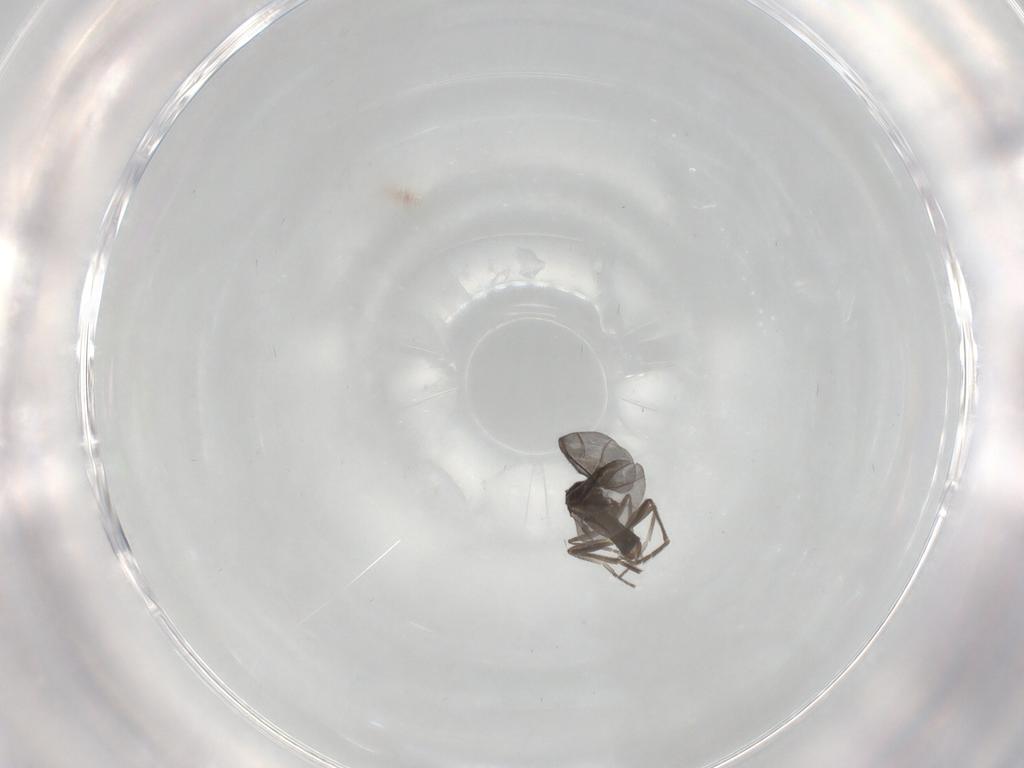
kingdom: Animalia
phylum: Arthropoda
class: Insecta
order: Diptera
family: Phoridae
